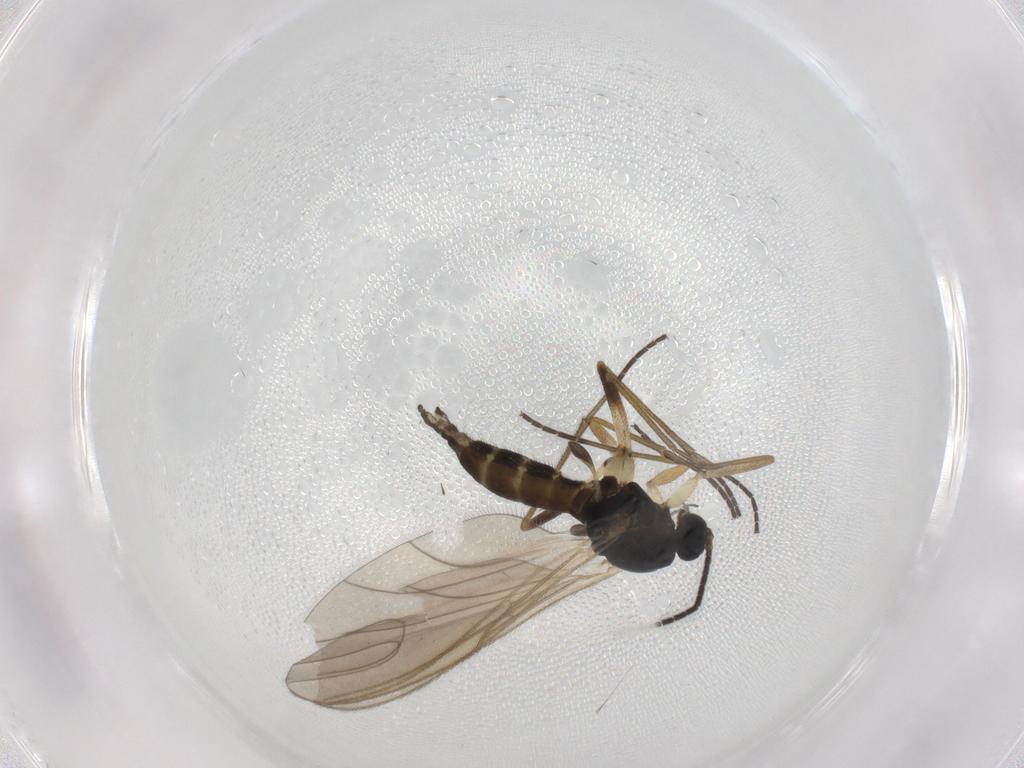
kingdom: Animalia
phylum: Arthropoda
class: Insecta
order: Diptera
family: Sciaridae
